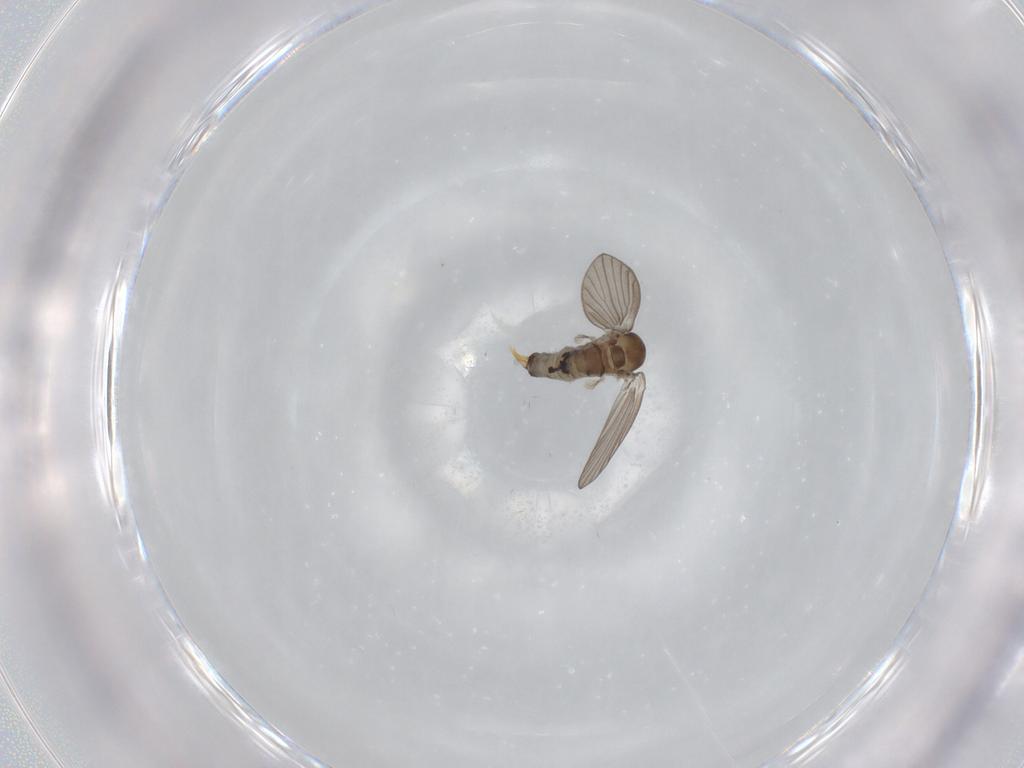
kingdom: Animalia
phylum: Arthropoda
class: Insecta
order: Diptera
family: Psychodidae
